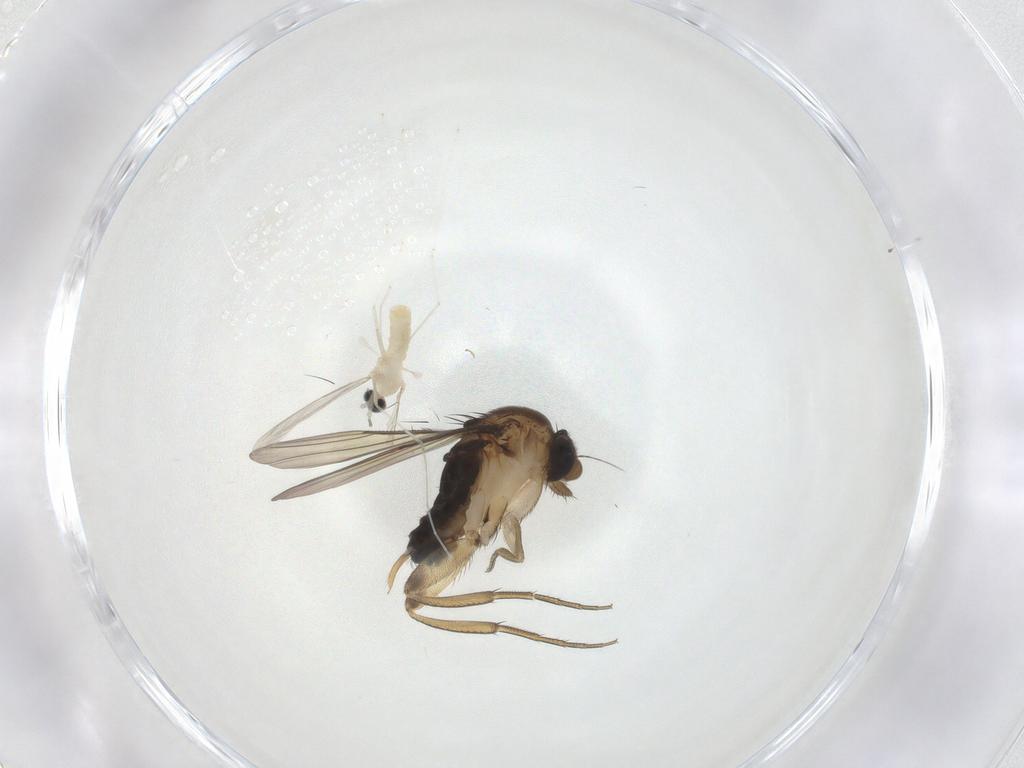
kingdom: Animalia
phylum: Arthropoda
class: Insecta
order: Diptera
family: Phoridae
